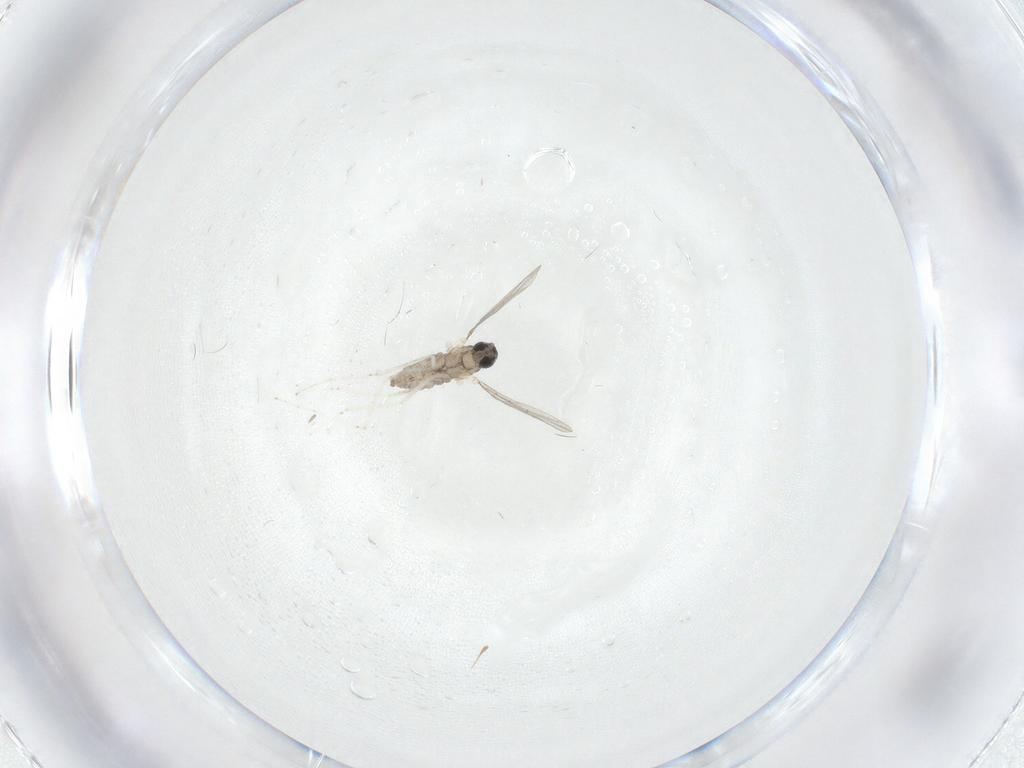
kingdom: Animalia
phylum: Arthropoda
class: Insecta
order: Diptera
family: Cecidomyiidae
